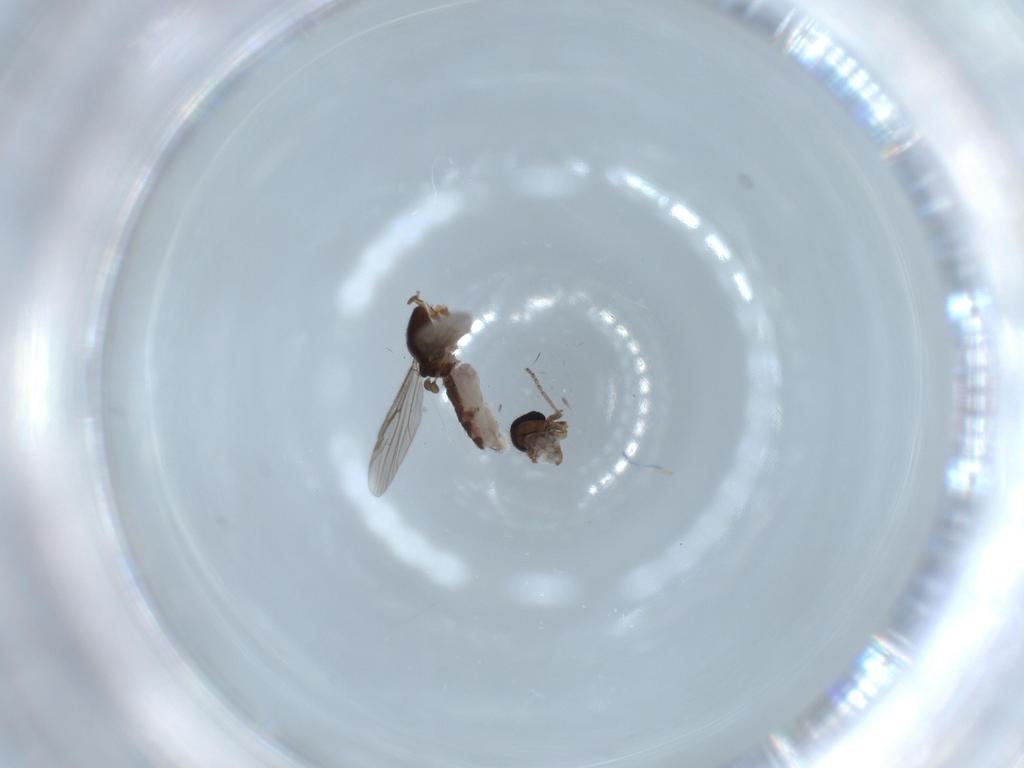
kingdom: Animalia
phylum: Arthropoda
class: Insecta
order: Diptera
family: Ceratopogonidae
